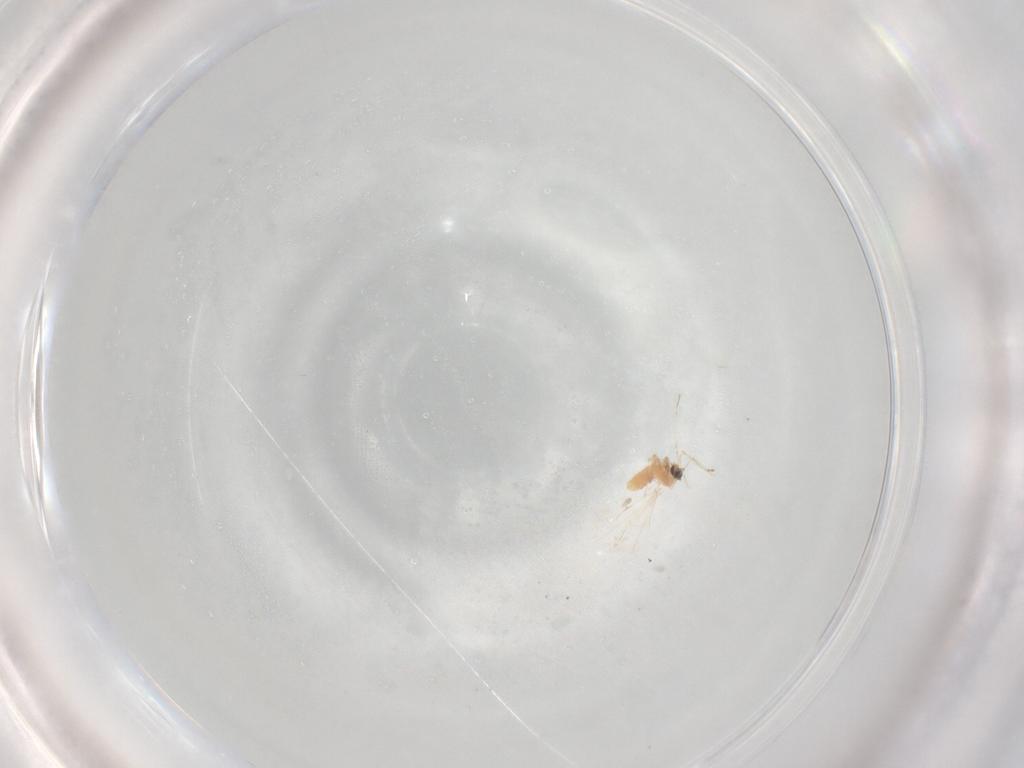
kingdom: Animalia
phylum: Arthropoda
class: Insecta
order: Diptera
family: Cecidomyiidae
